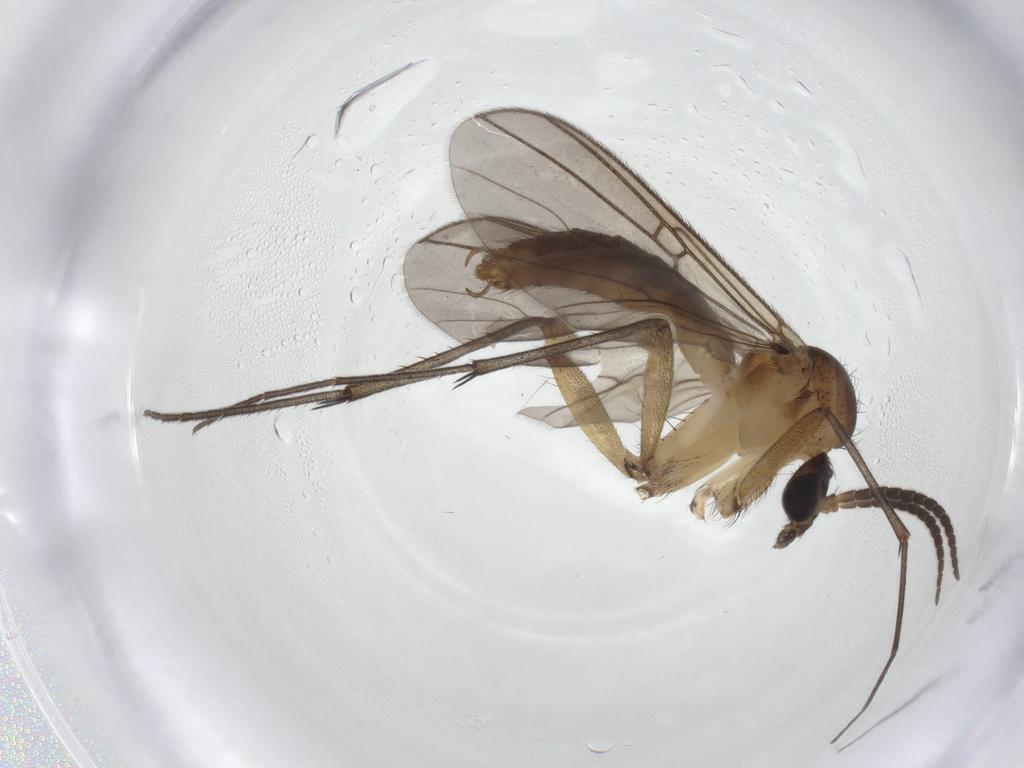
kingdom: Animalia
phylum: Arthropoda
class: Insecta
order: Diptera
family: Mycetophilidae
